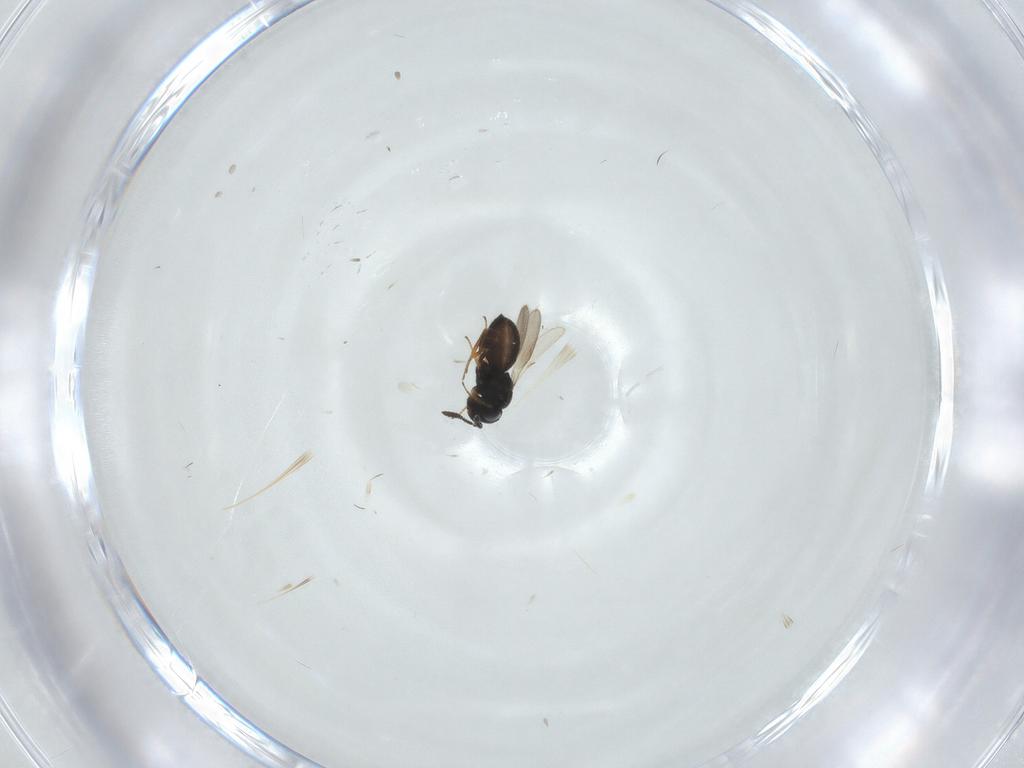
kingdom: Animalia
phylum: Arthropoda
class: Insecta
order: Hymenoptera
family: Scelionidae
